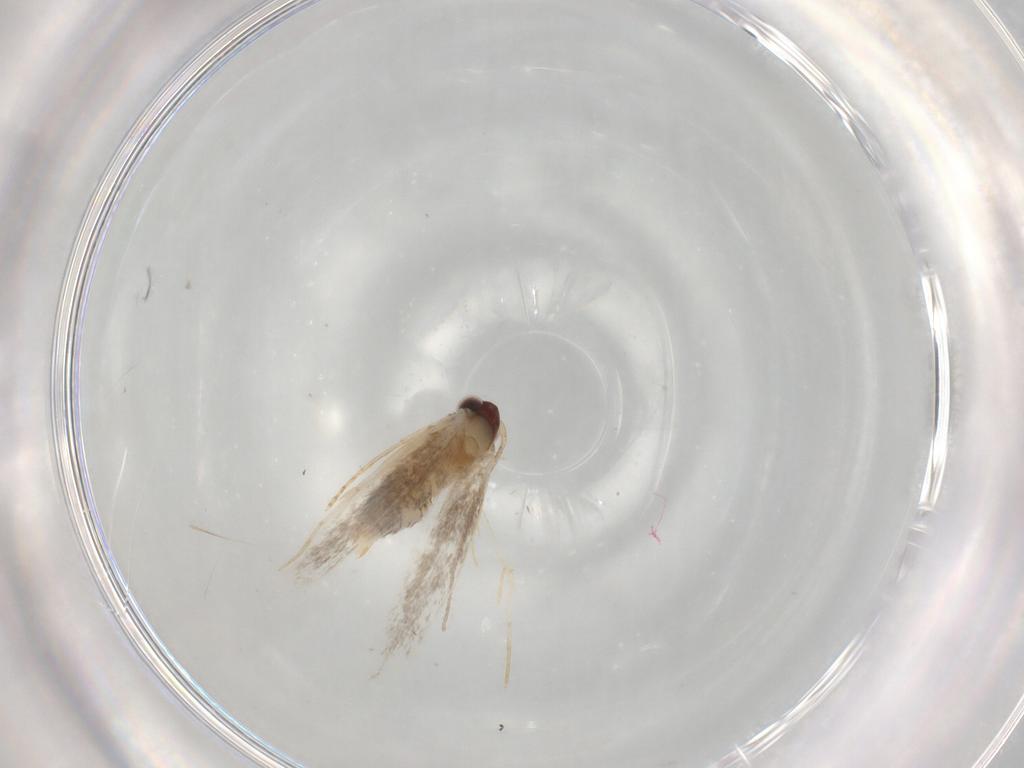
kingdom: Animalia
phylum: Arthropoda
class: Insecta
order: Lepidoptera
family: Tineidae
